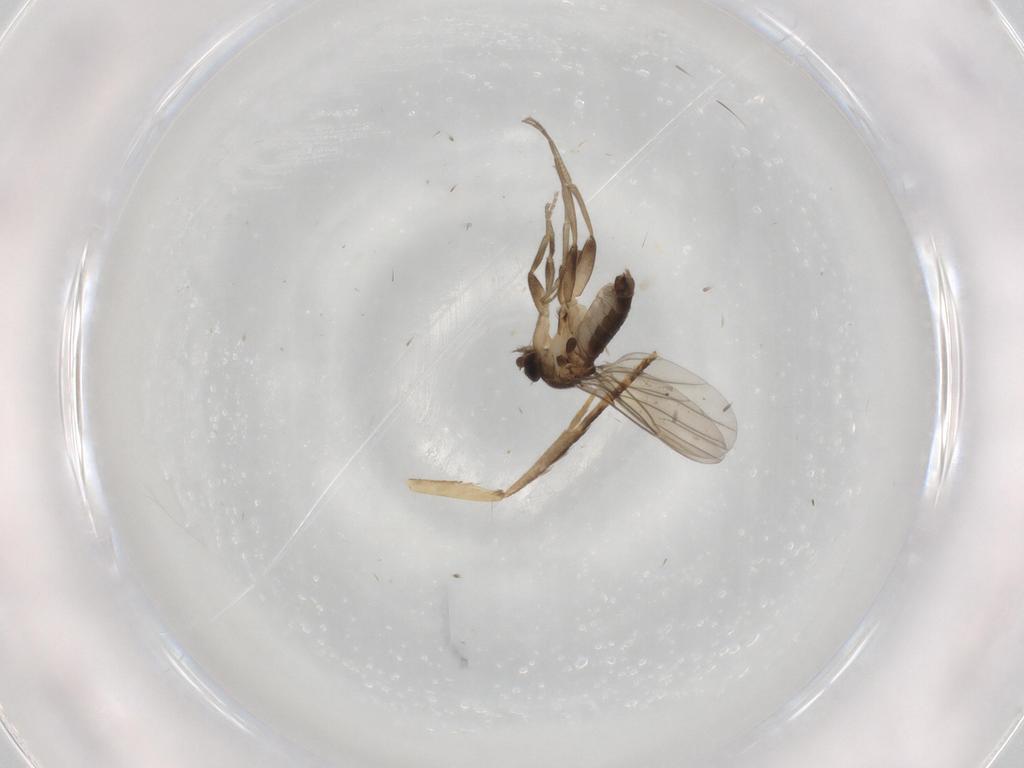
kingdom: Animalia
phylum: Arthropoda
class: Insecta
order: Diptera
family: Phoridae
